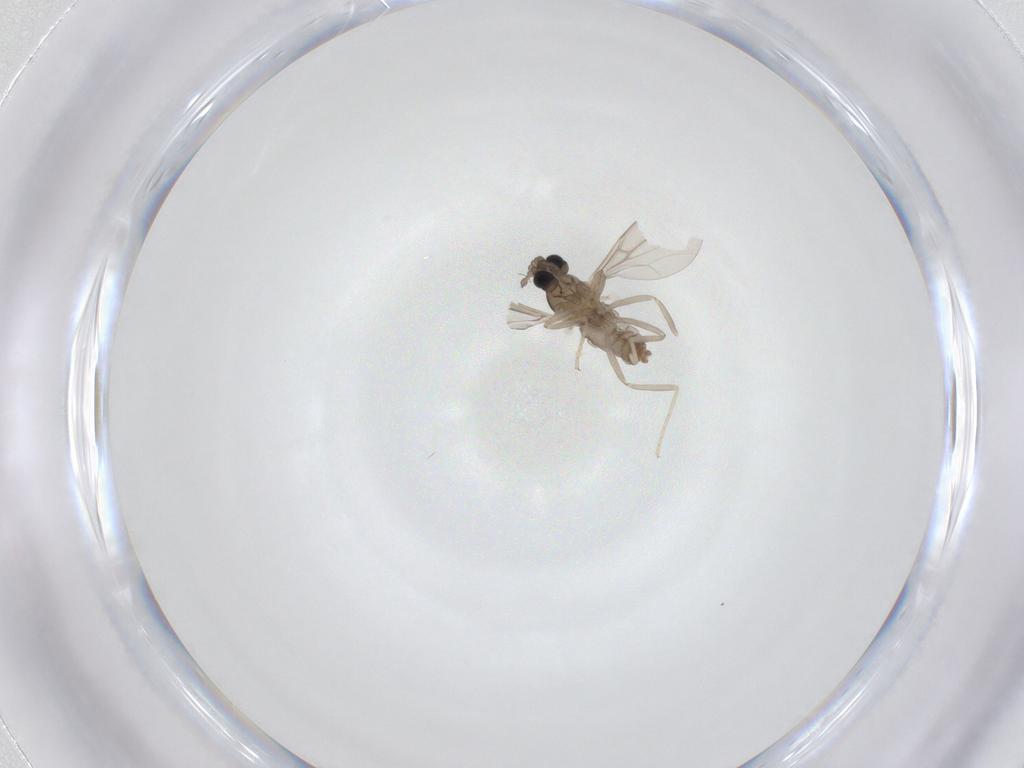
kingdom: Animalia
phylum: Arthropoda
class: Insecta
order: Diptera
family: Cecidomyiidae
